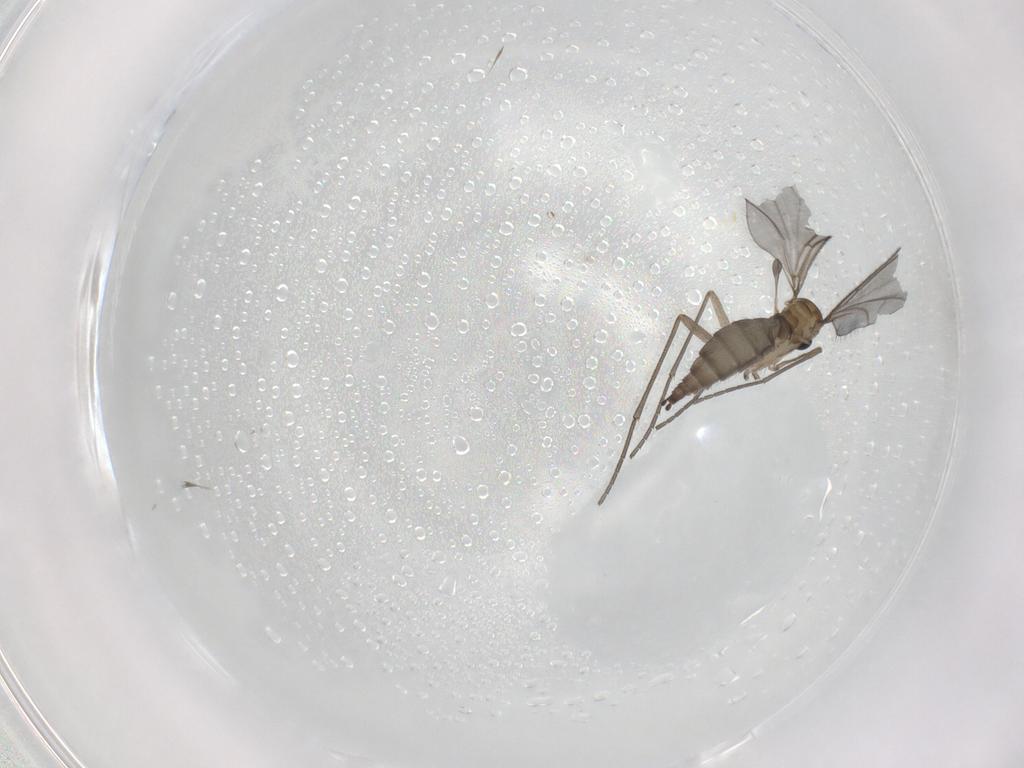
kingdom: Animalia
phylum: Arthropoda
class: Insecta
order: Diptera
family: Sciaridae
